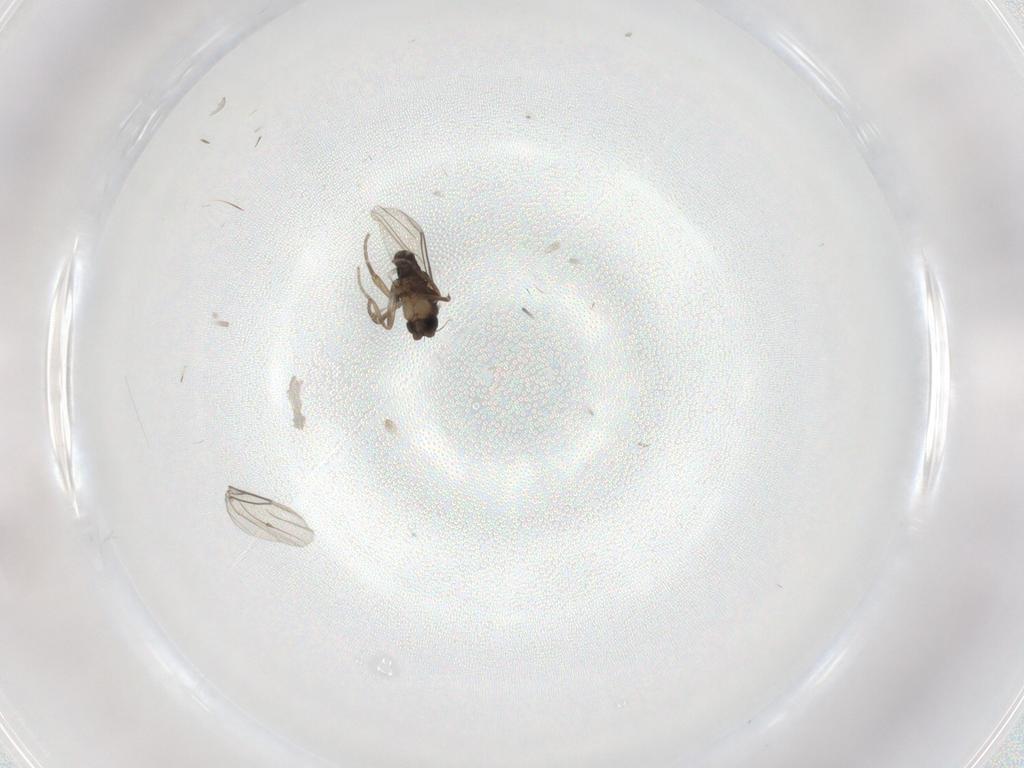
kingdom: Animalia
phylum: Arthropoda
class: Insecta
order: Diptera
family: Phoridae
